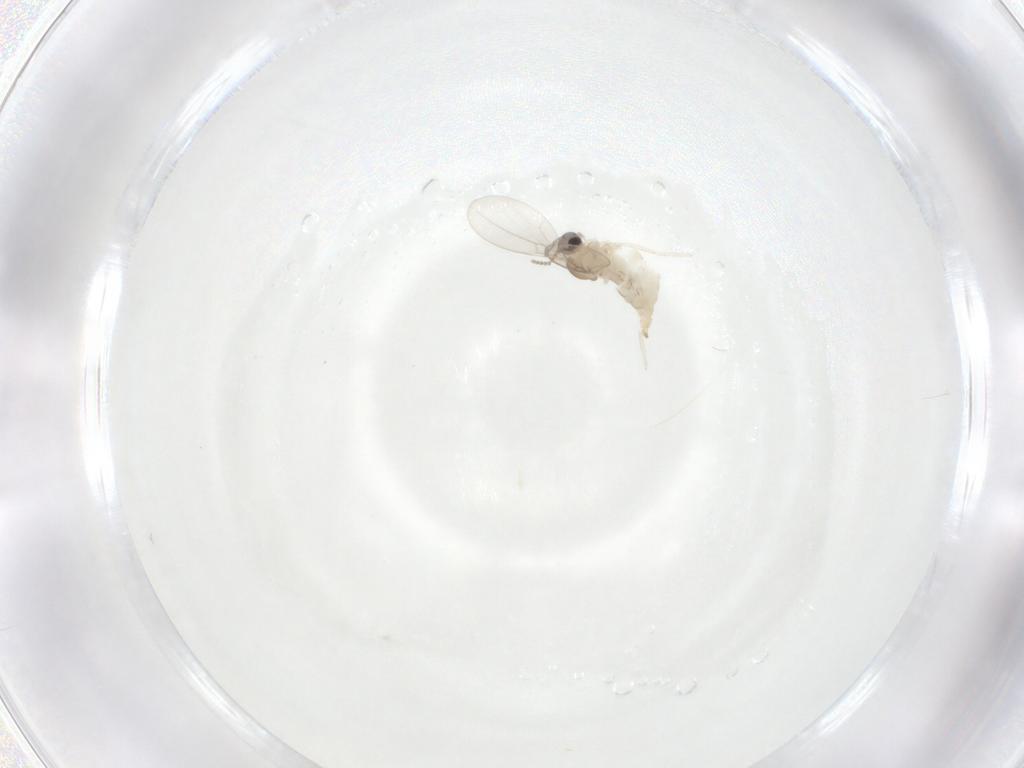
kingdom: Animalia
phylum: Arthropoda
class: Insecta
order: Diptera
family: Cecidomyiidae
